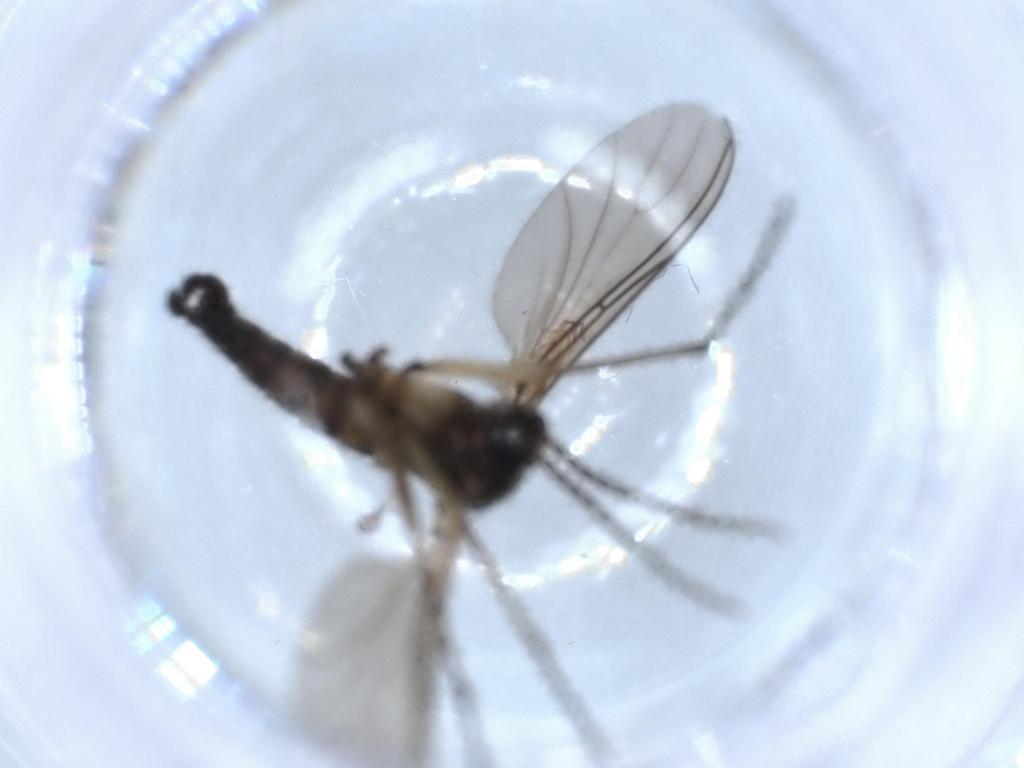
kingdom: Animalia
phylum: Arthropoda
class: Insecta
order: Diptera
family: Sciaridae
